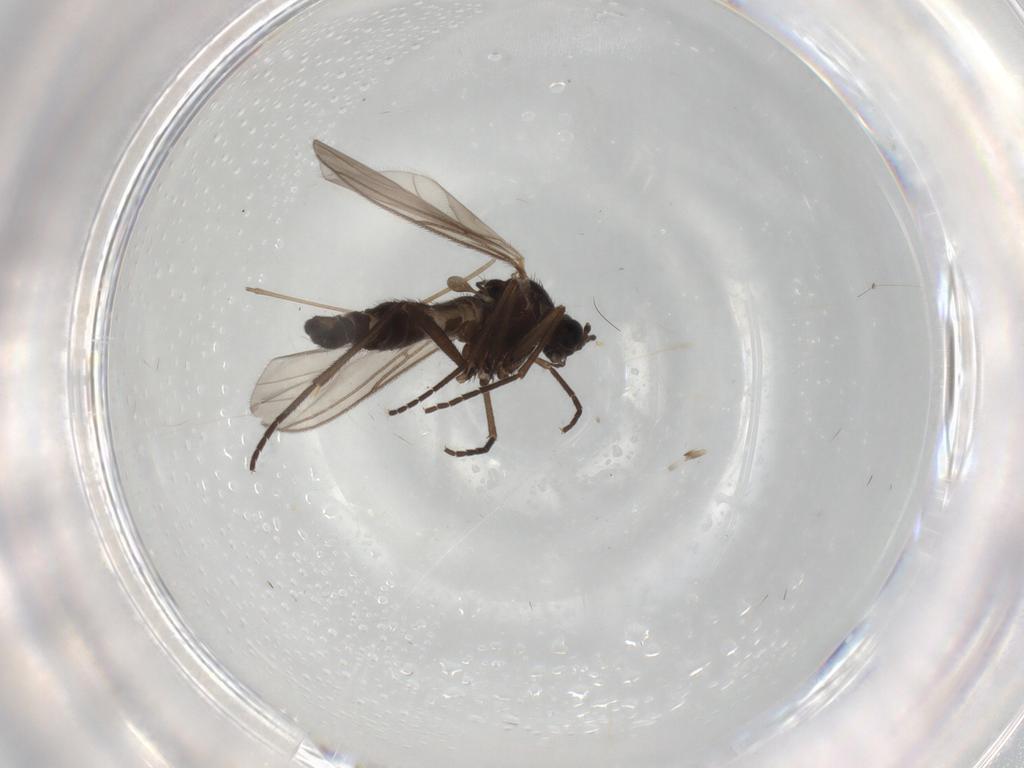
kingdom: Animalia
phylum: Arthropoda
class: Insecta
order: Diptera
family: Sciaridae
